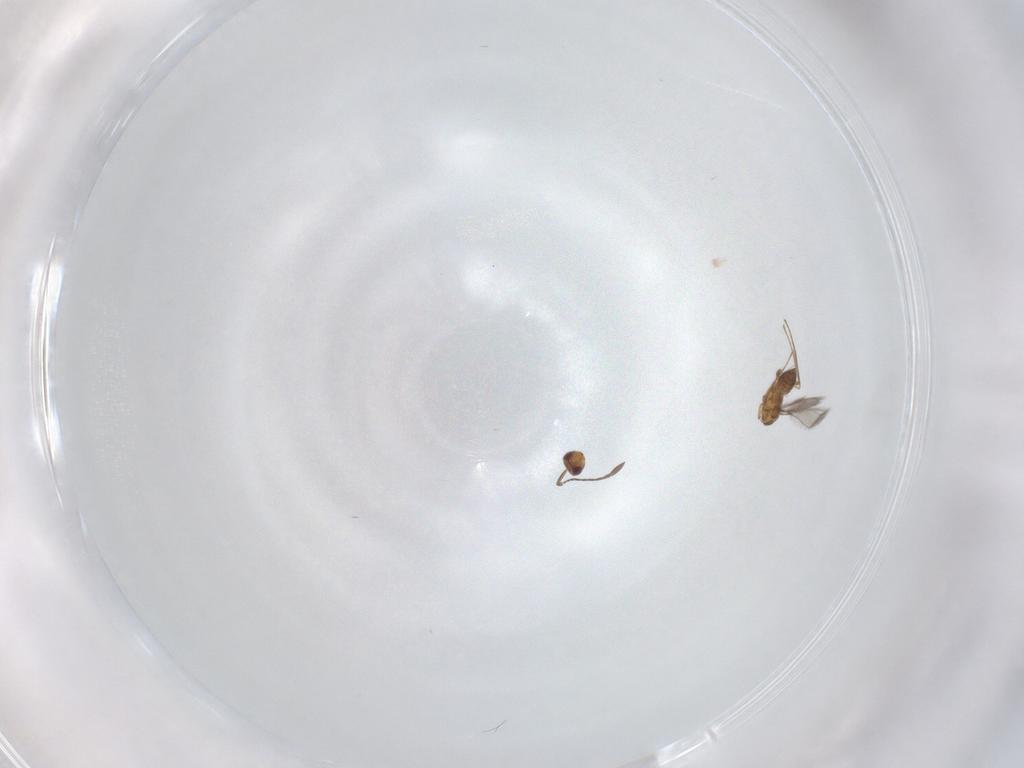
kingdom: Animalia
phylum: Arthropoda
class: Insecta
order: Hymenoptera
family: Mymaridae
